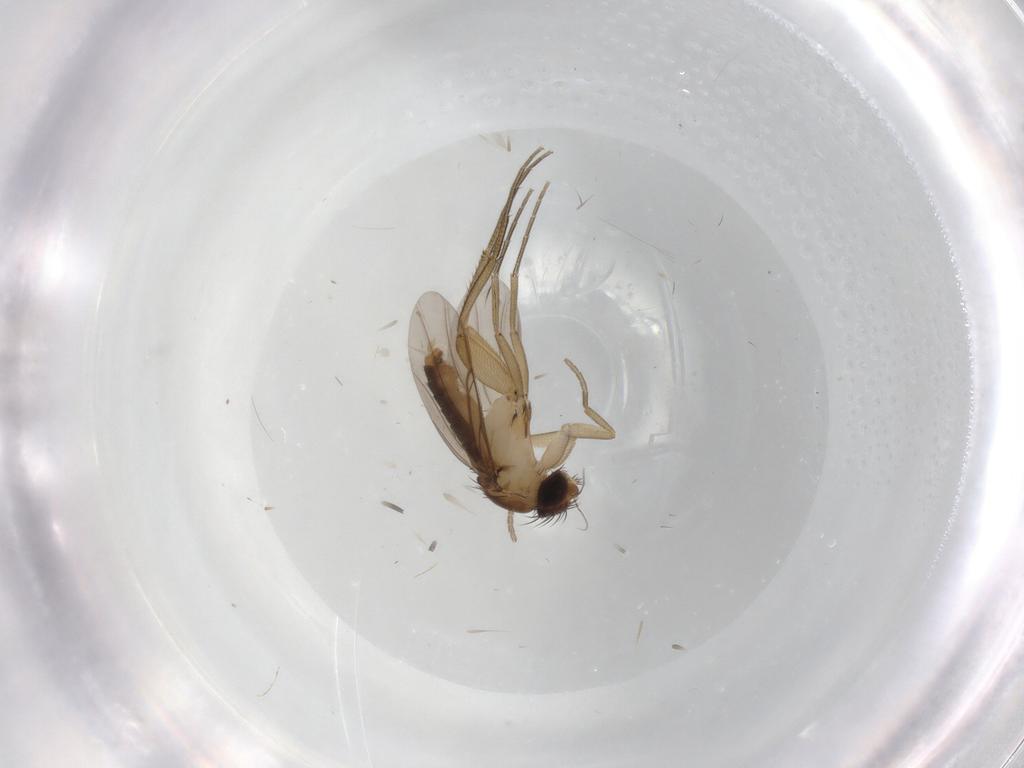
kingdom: Animalia
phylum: Arthropoda
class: Insecta
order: Diptera
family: Phoridae
